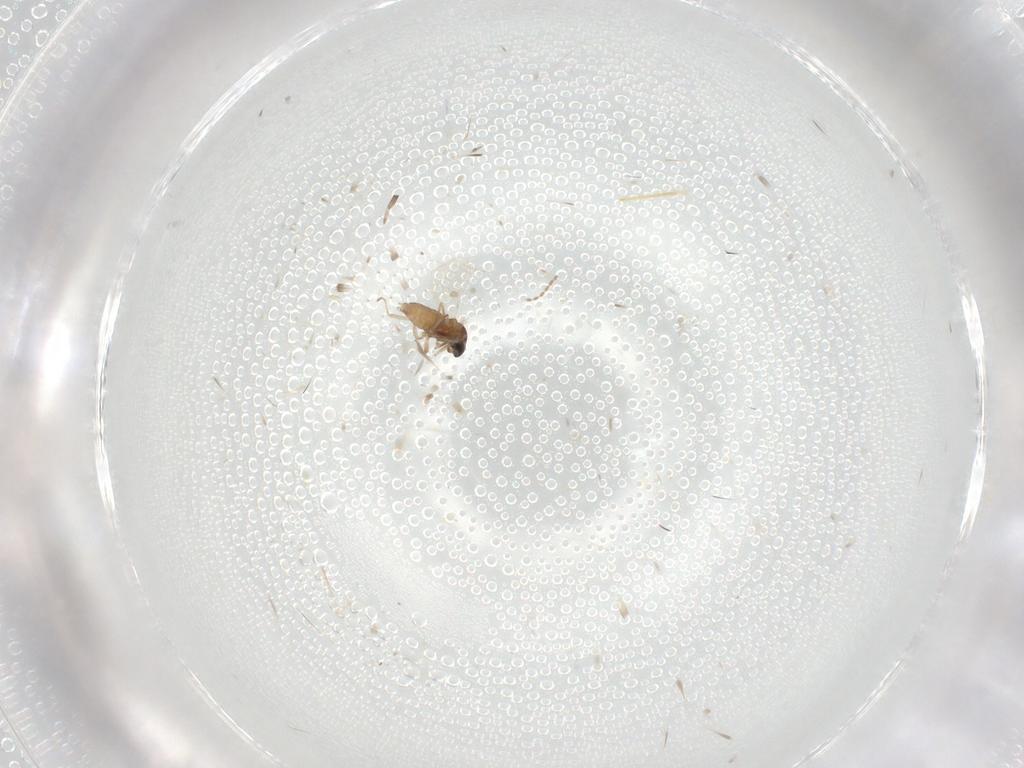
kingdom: Animalia
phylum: Arthropoda
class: Insecta
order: Diptera
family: Cecidomyiidae
